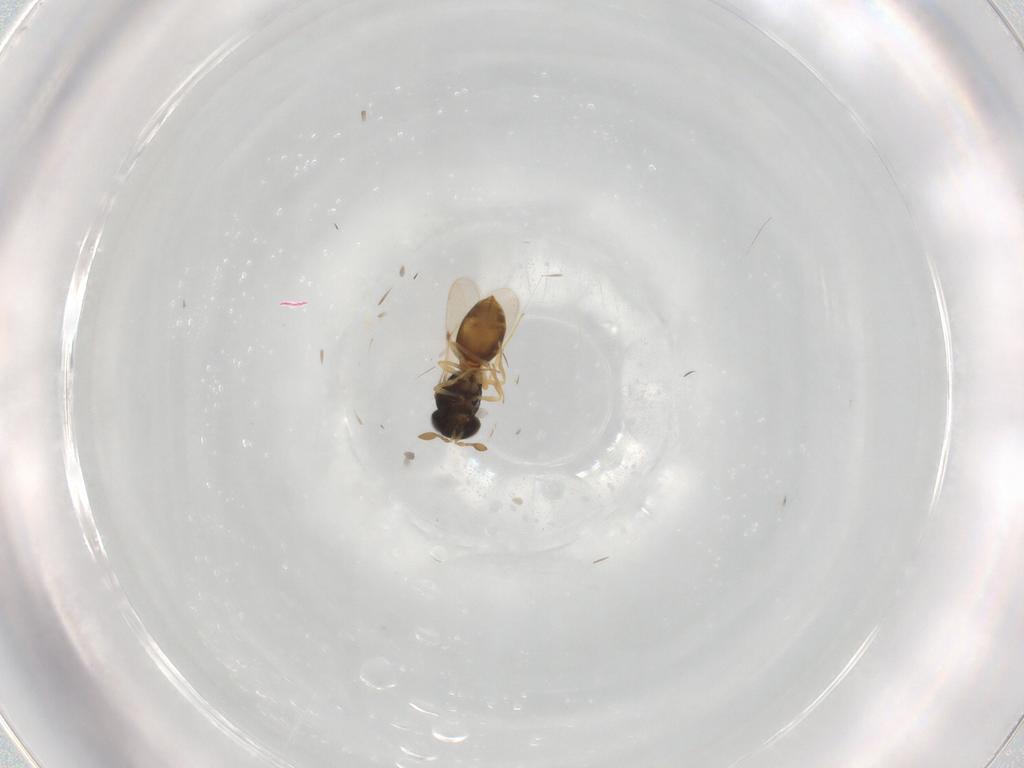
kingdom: Animalia
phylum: Arthropoda
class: Insecta
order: Hymenoptera
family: Scelionidae
